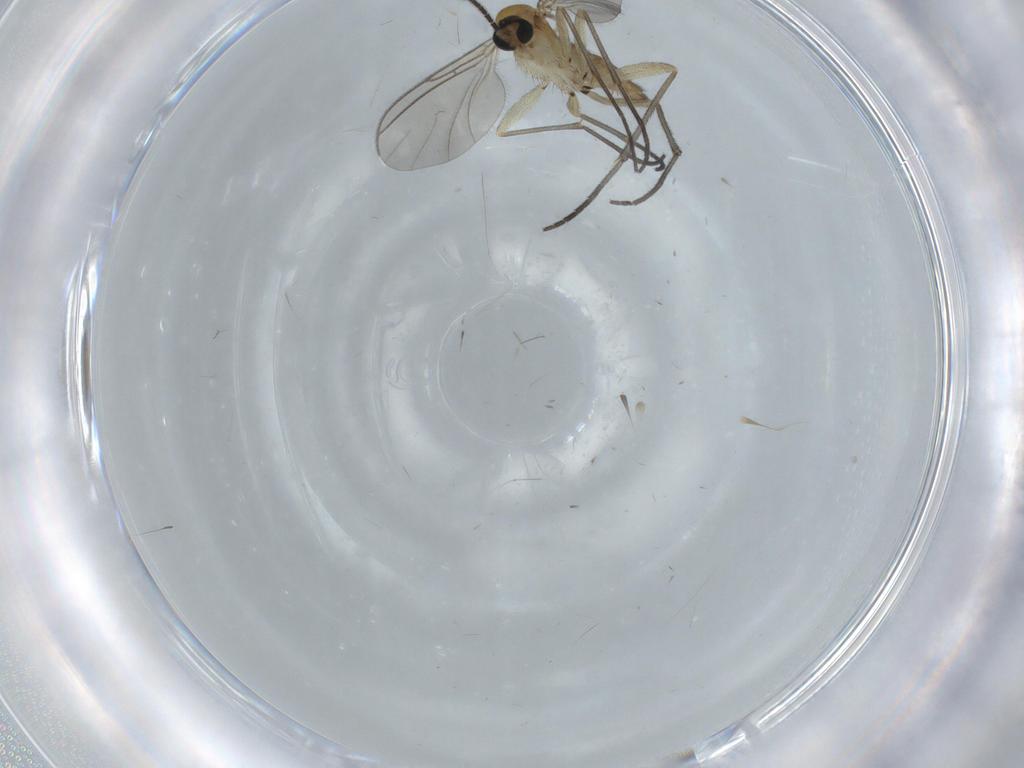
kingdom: Animalia
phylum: Arthropoda
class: Insecta
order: Diptera
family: Sciaridae
